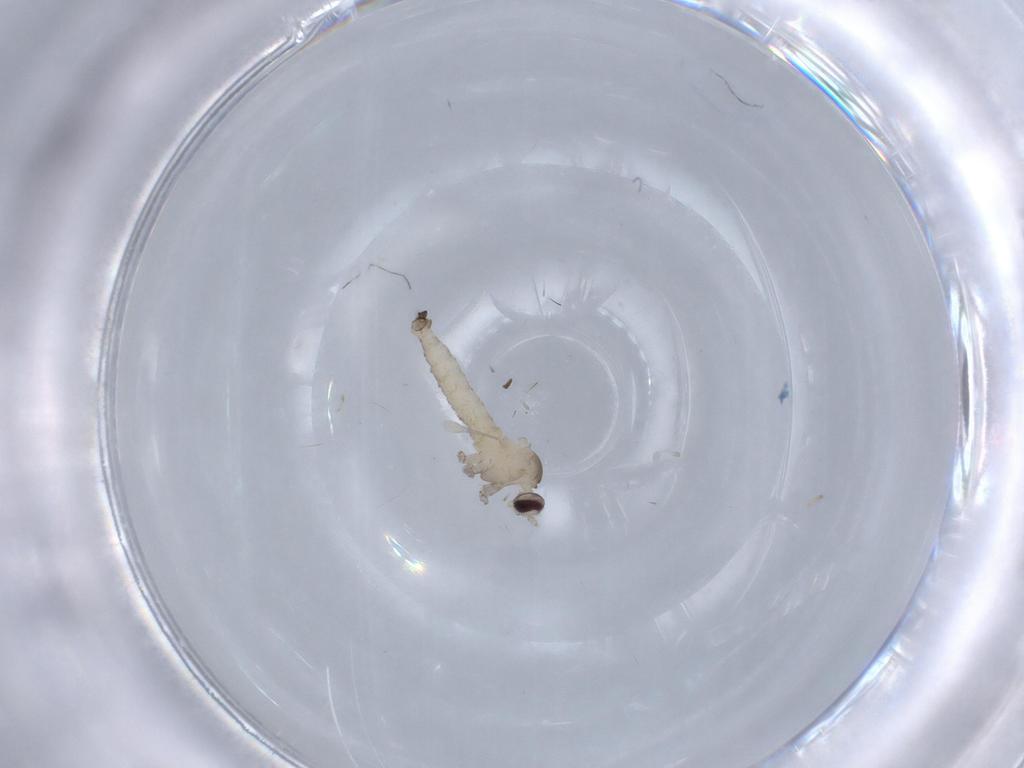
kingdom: Animalia
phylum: Arthropoda
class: Insecta
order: Diptera
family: Cecidomyiidae
